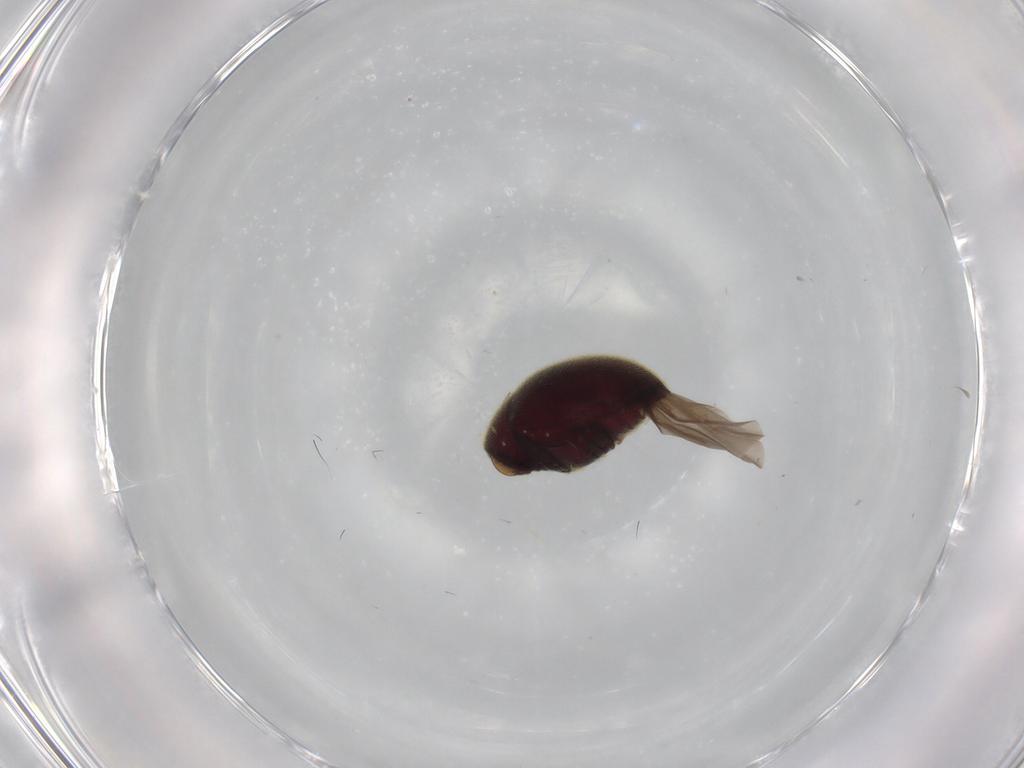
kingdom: Animalia
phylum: Arthropoda
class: Insecta
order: Coleoptera
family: Ptinidae
